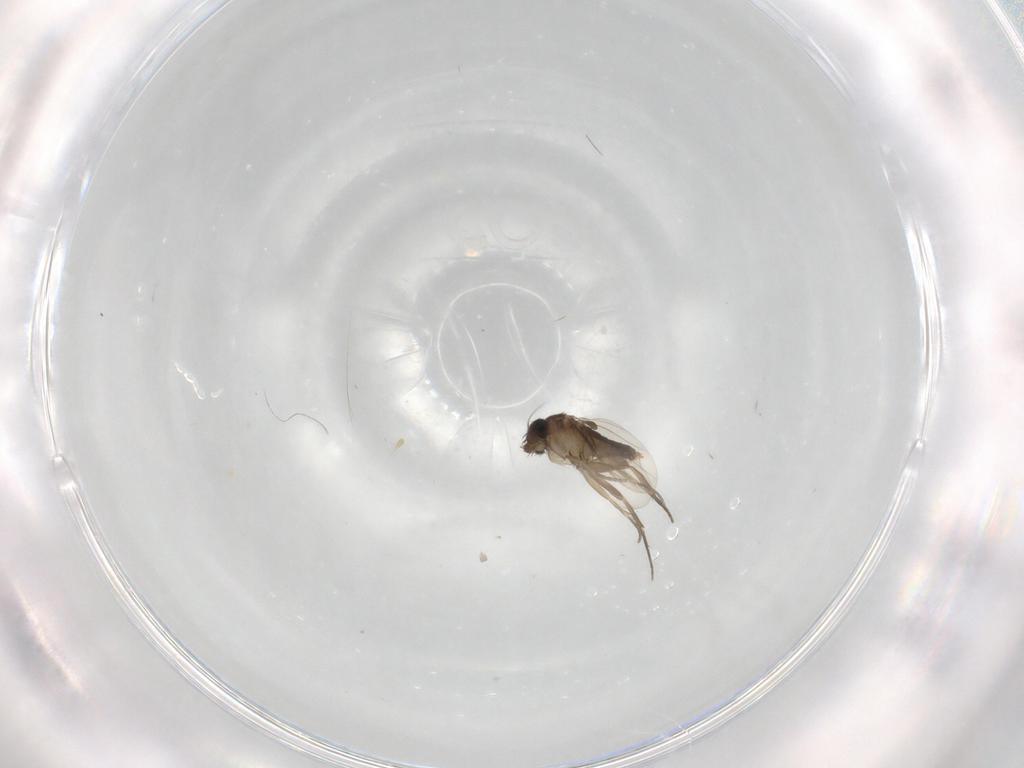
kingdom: Animalia
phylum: Arthropoda
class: Insecta
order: Diptera
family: Phoridae
